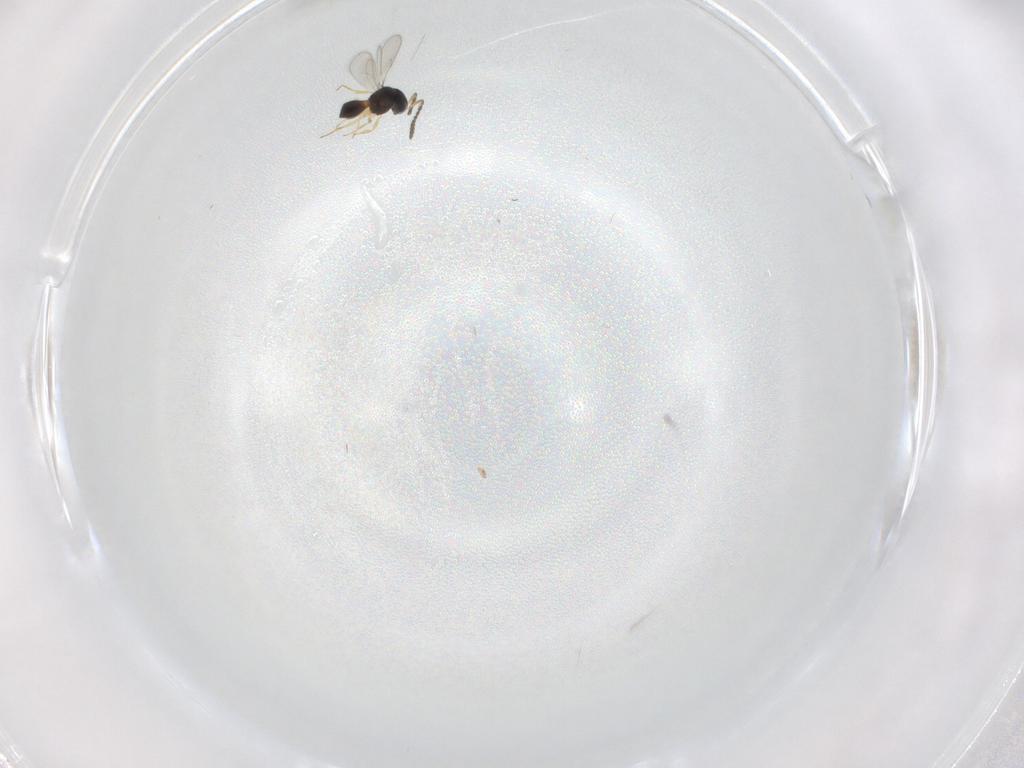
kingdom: Animalia
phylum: Arthropoda
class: Insecta
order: Hymenoptera
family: Scelionidae
